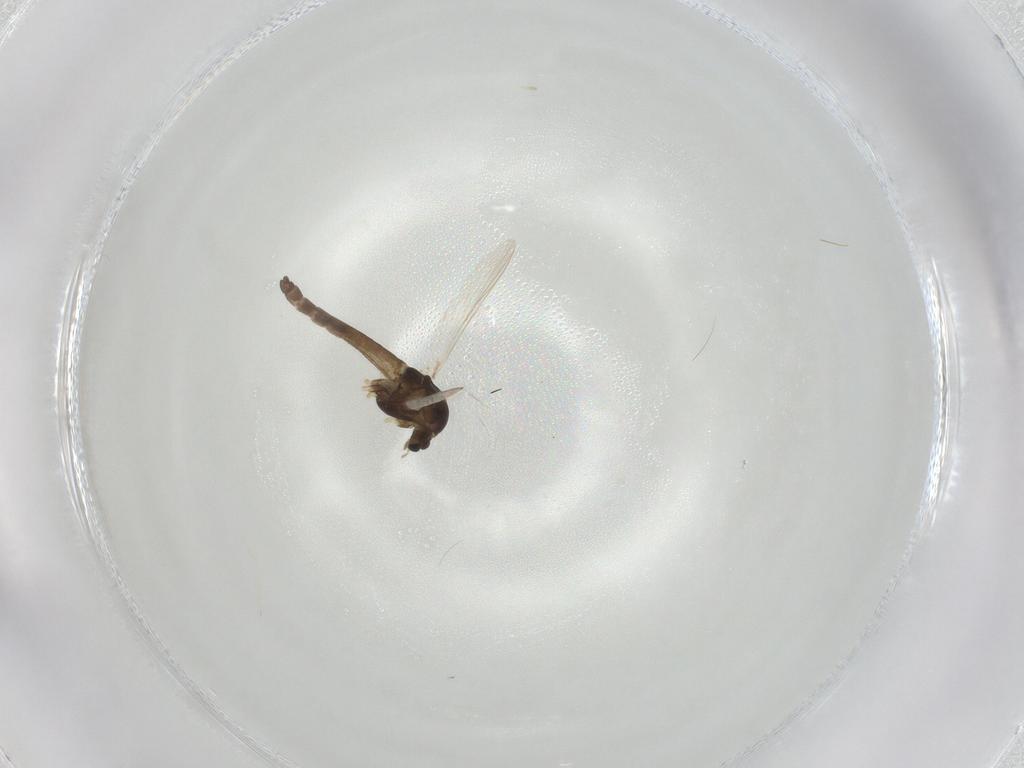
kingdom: Animalia
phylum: Arthropoda
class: Insecta
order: Diptera
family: Chironomidae
